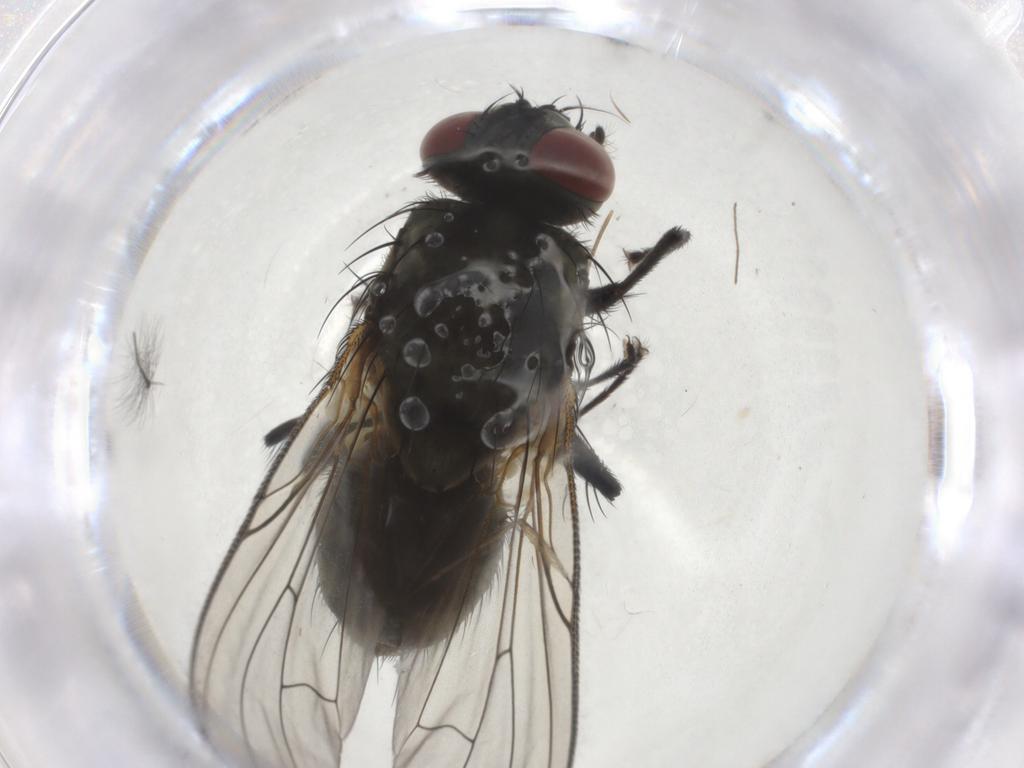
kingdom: Animalia
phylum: Arthropoda
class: Insecta
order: Diptera
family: Muscidae
